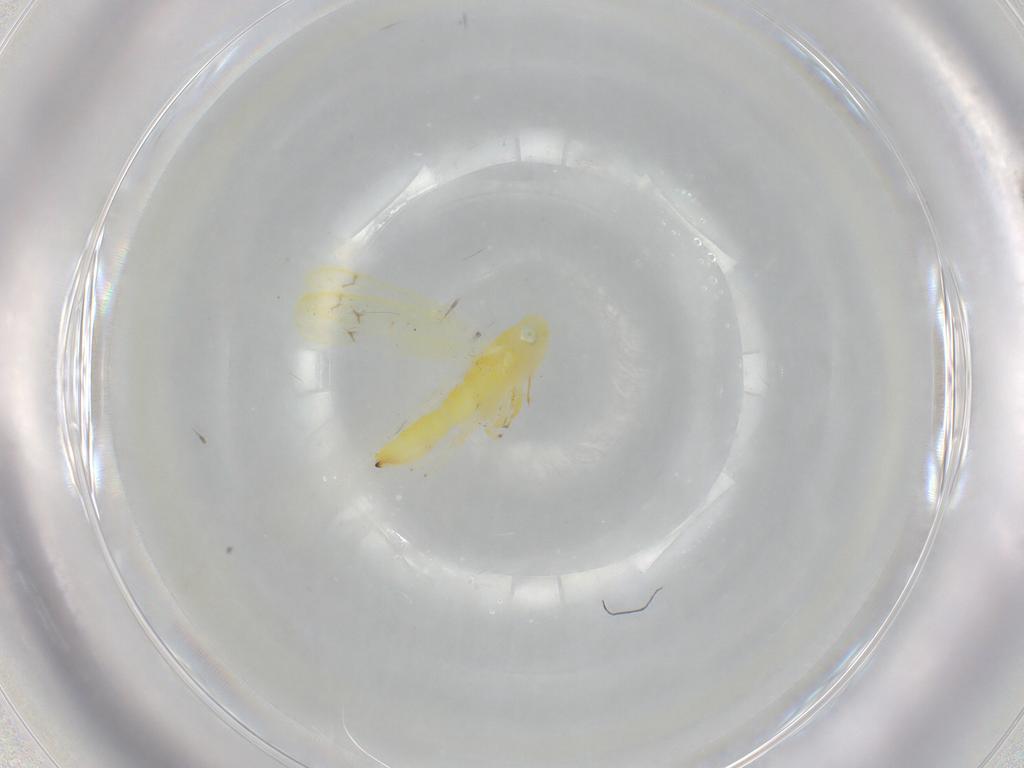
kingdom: Animalia
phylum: Arthropoda
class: Insecta
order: Hemiptera
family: Cicadellidae
